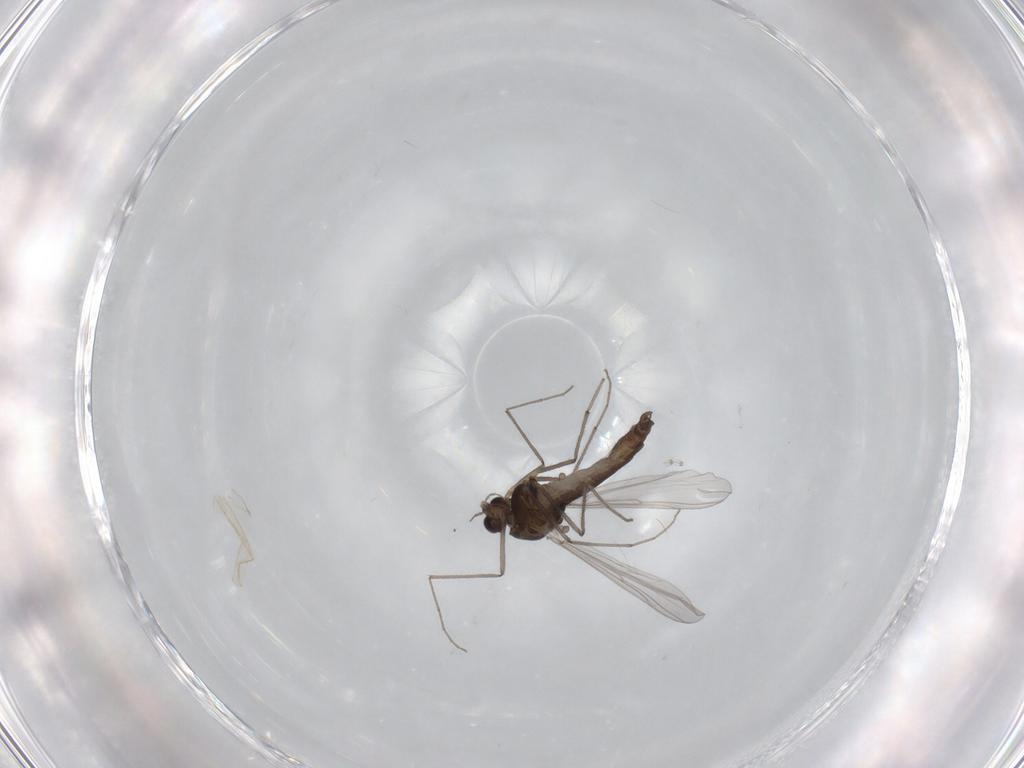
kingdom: Animalia
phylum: Arthropoda
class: Insecta
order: Diptera
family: Chironomidae
